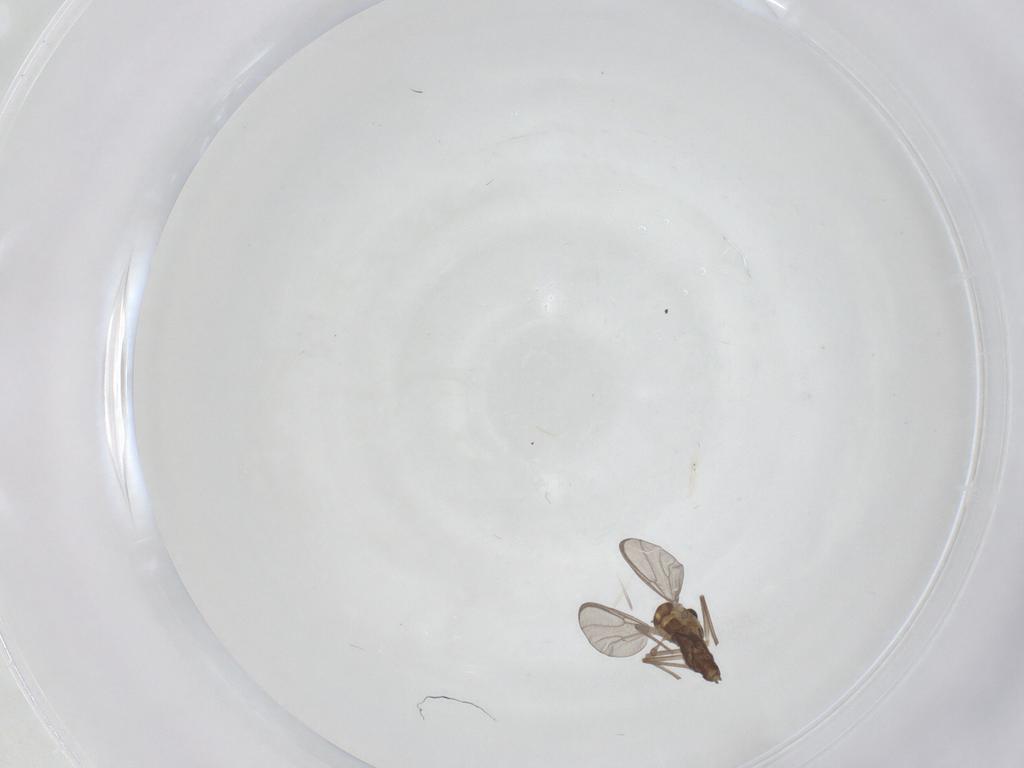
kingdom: Animalia
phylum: Arthropoda
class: Insecta
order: Diptera
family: Chironomidae
